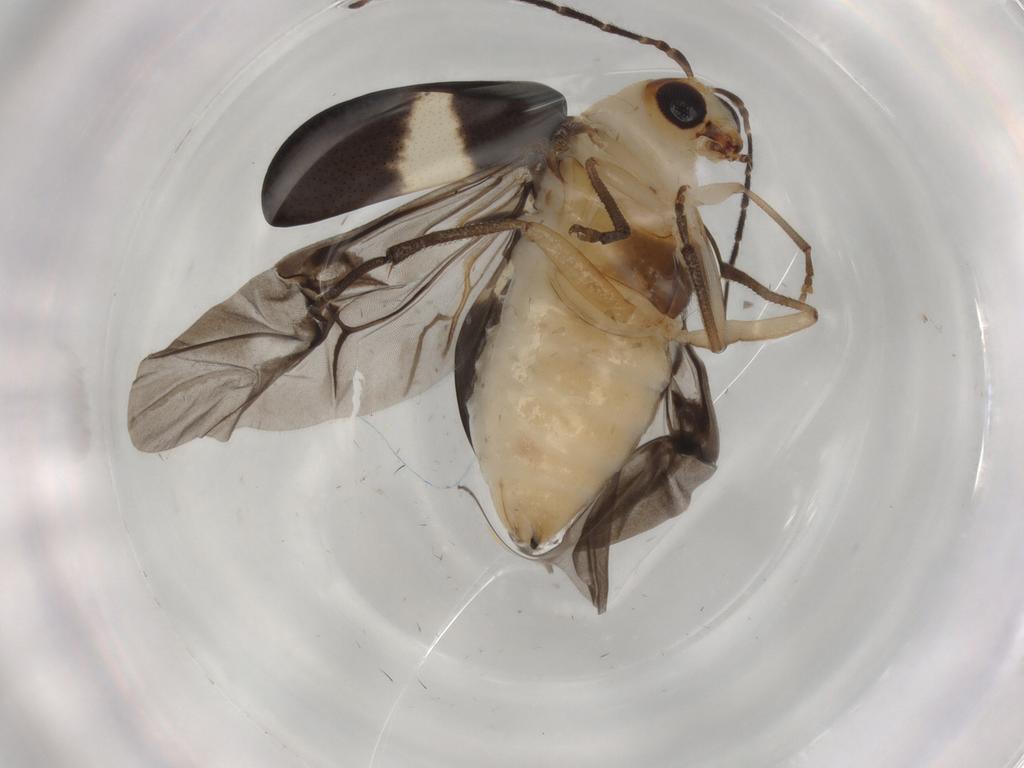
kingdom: Animalia
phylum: Arthropoda
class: Insecta
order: Coleoptera
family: Chrysomelidae
